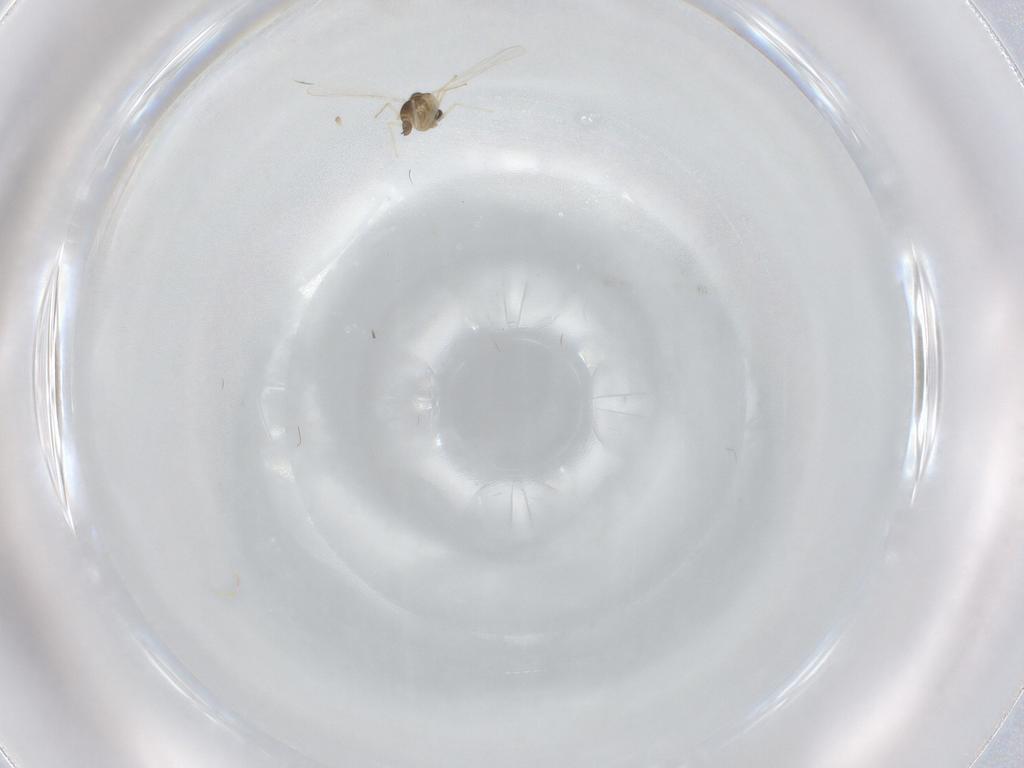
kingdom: Animalia
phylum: Arthropoda
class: Insecta
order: Diptera
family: Chironomidae
